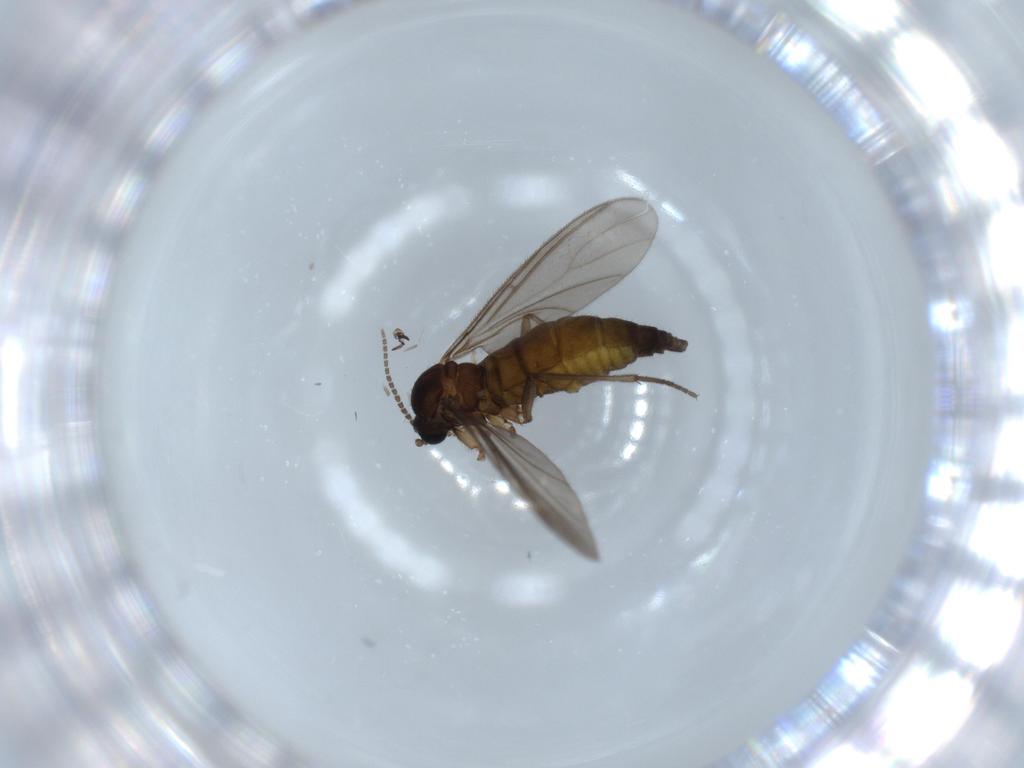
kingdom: Animalia
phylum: Arthropoda
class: Insecta
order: Diptera
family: Sciaridae
